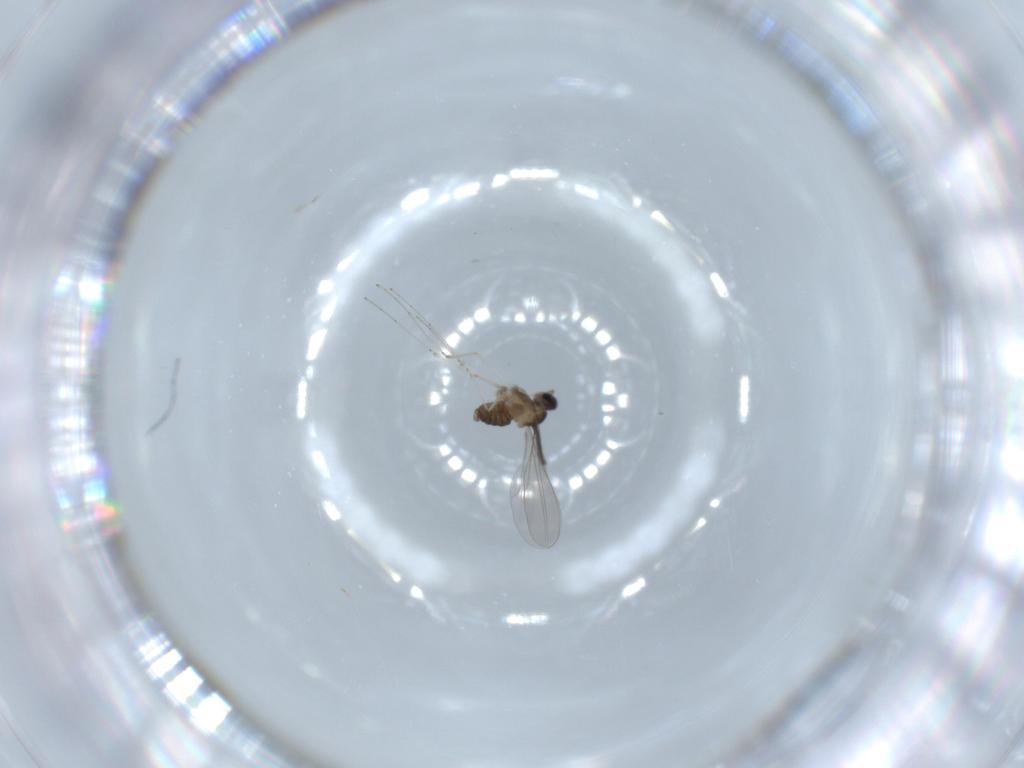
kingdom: Animalia
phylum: Arthropoda
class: Insecta
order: Diptera
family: Cecidomyiidae
